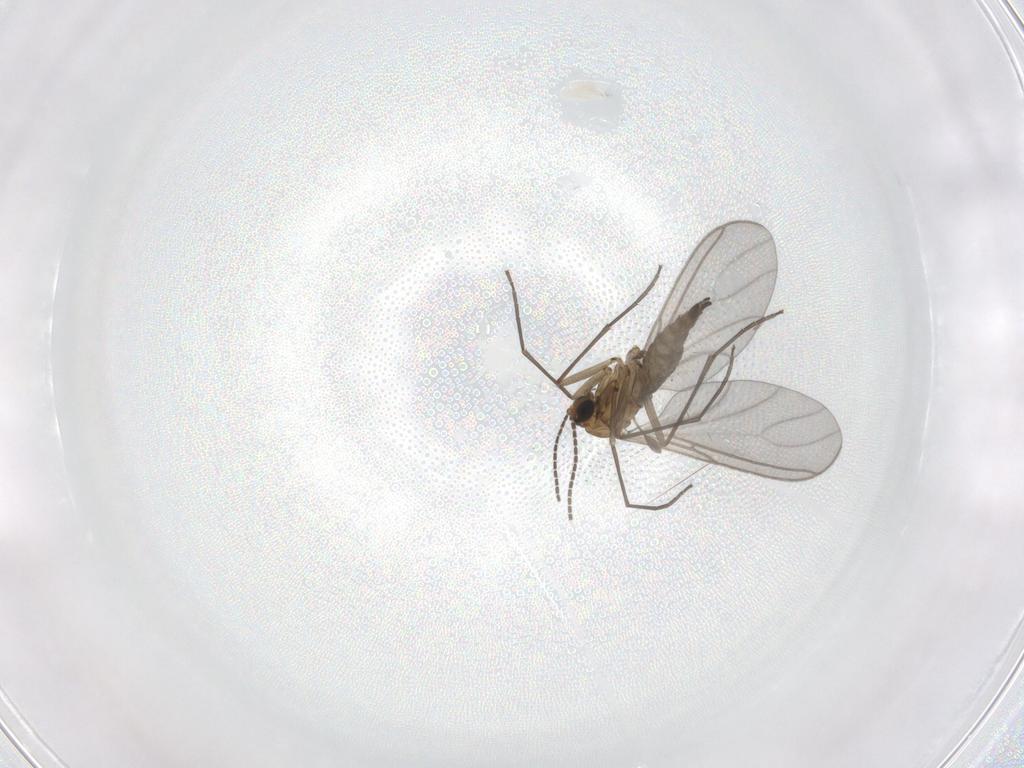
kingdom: Animalia
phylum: Arthropoda
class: Insecta
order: Diptera
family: Sciaridae
